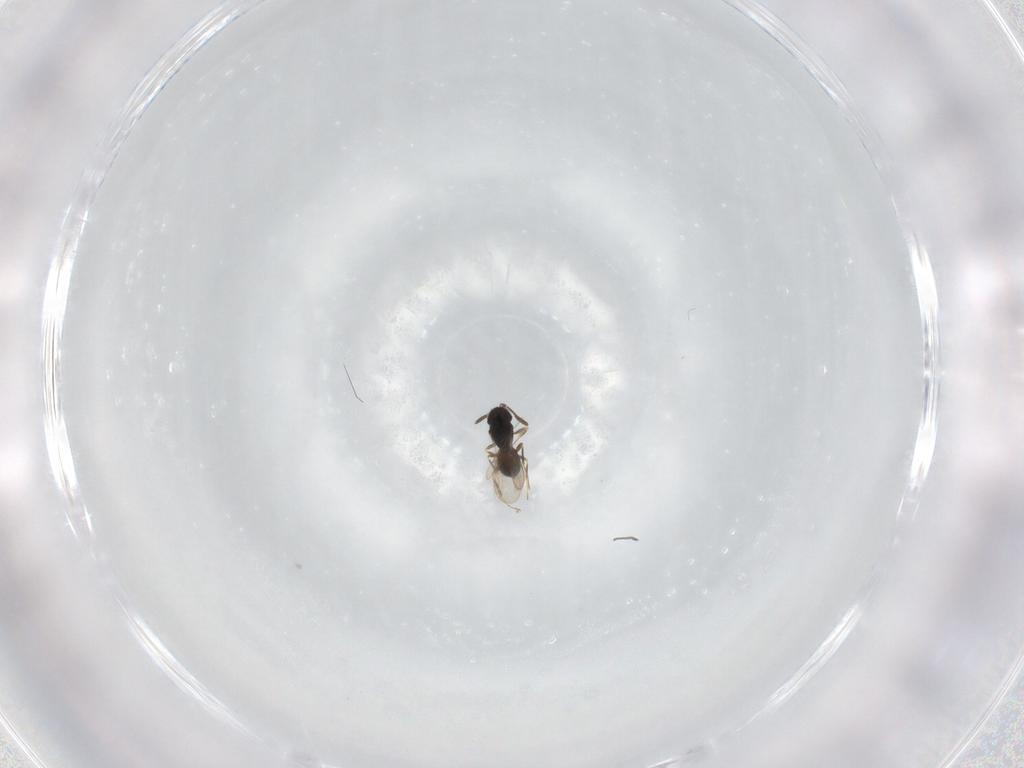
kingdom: Animalia
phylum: Arthropoda
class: Insecta
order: Hymenoptera
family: Scelionidae
